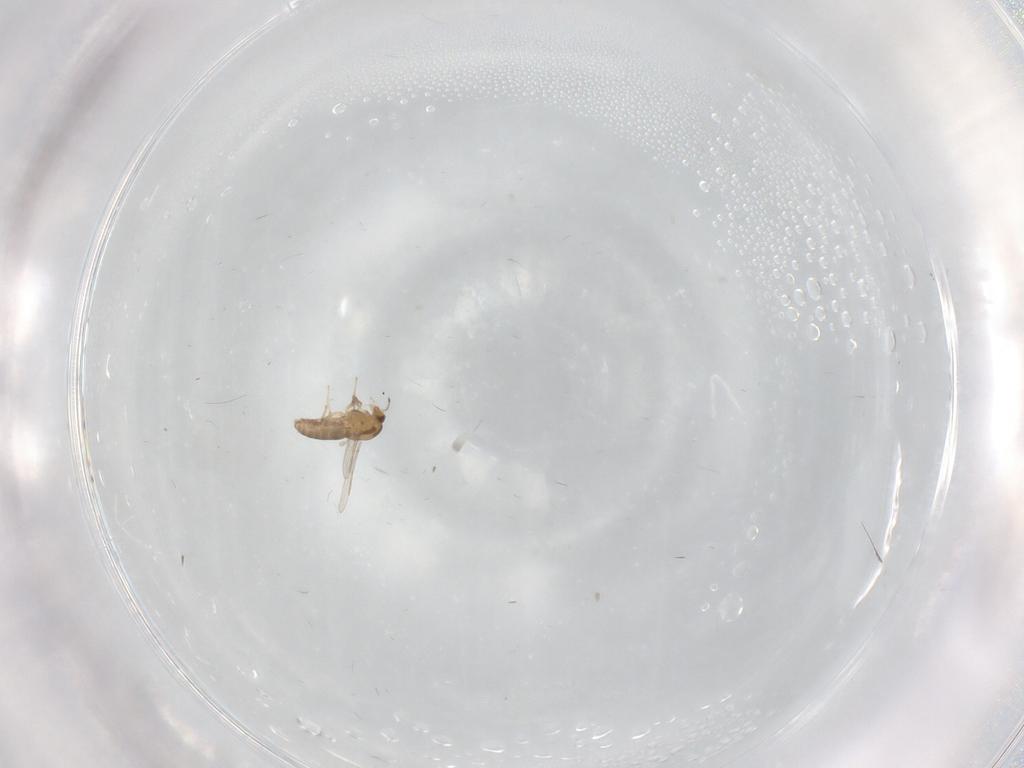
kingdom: Animalia
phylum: Arthropoda
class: Insecta
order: Diptera
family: Chironomidae
